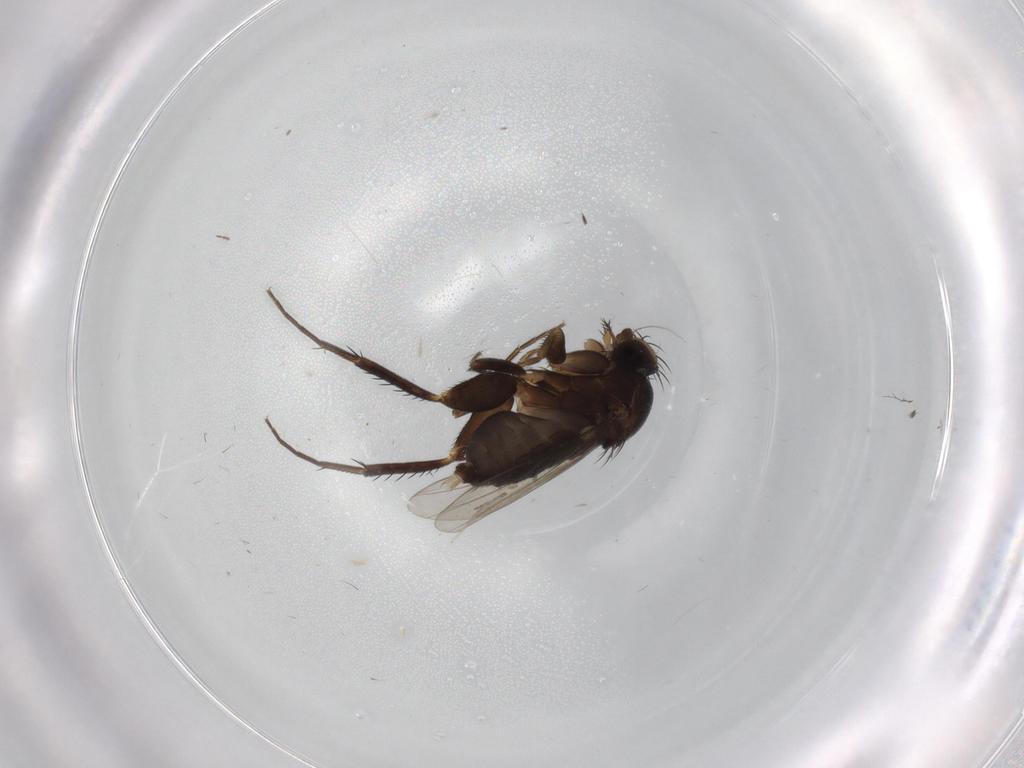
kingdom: Animalia
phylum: Arthropoda
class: Insecta
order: Diptera
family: Phoridae
